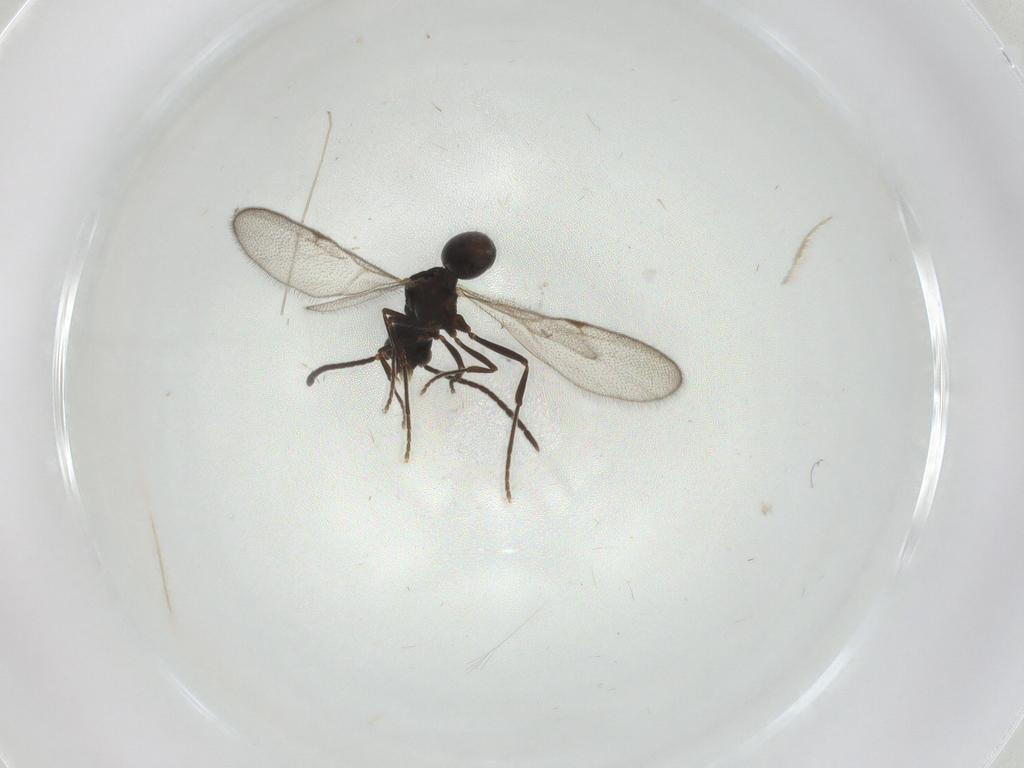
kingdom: Animalia
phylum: Arthropoda
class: Insecta
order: Hymenoptera
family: Formicidae
